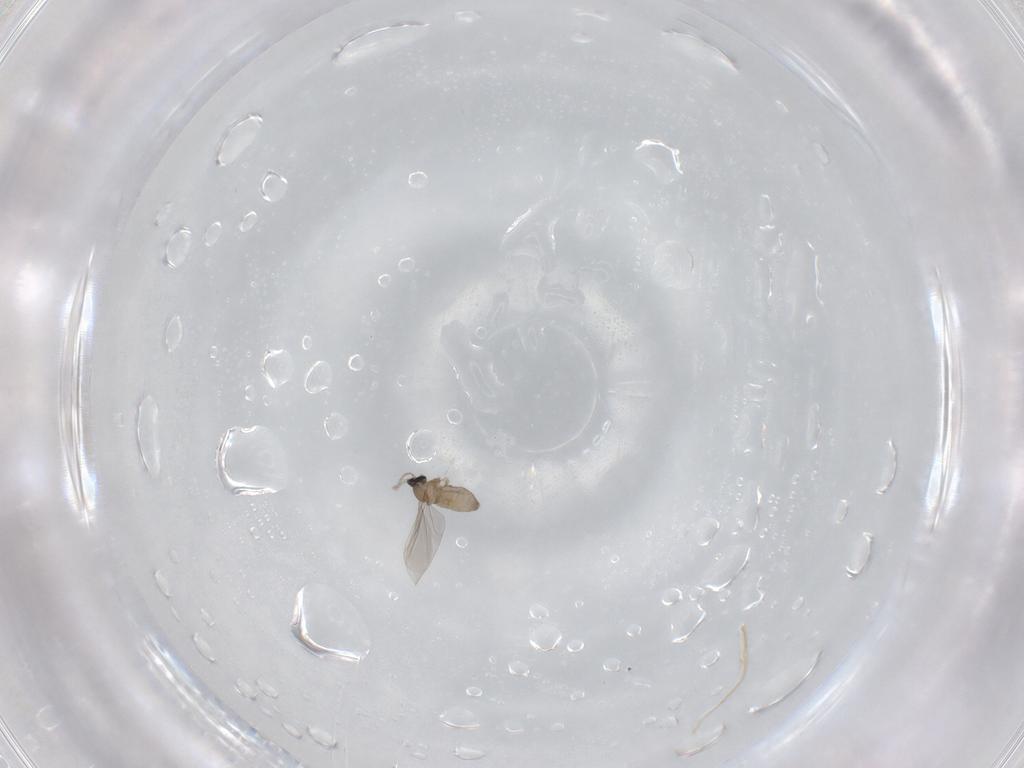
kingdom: Animalia
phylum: Arthropoda
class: Insecta
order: Diptera
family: Cecidomyiidae
